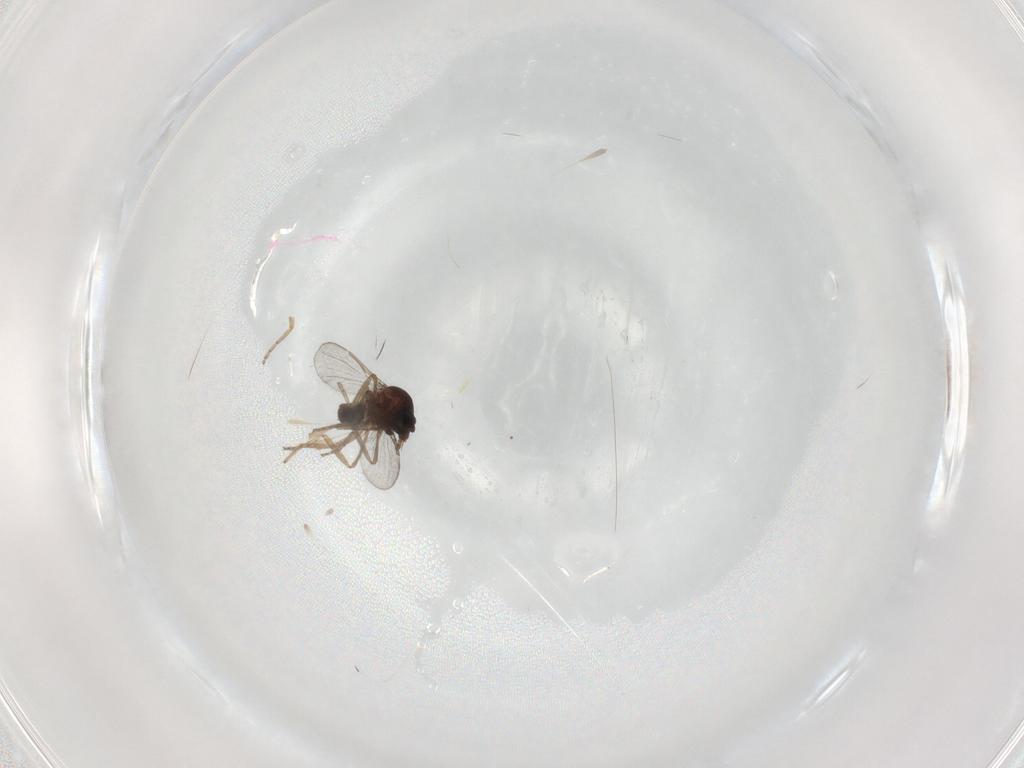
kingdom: Animalia
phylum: Arthropoda
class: Insecta
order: Diptera
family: Ceratopogonidae
